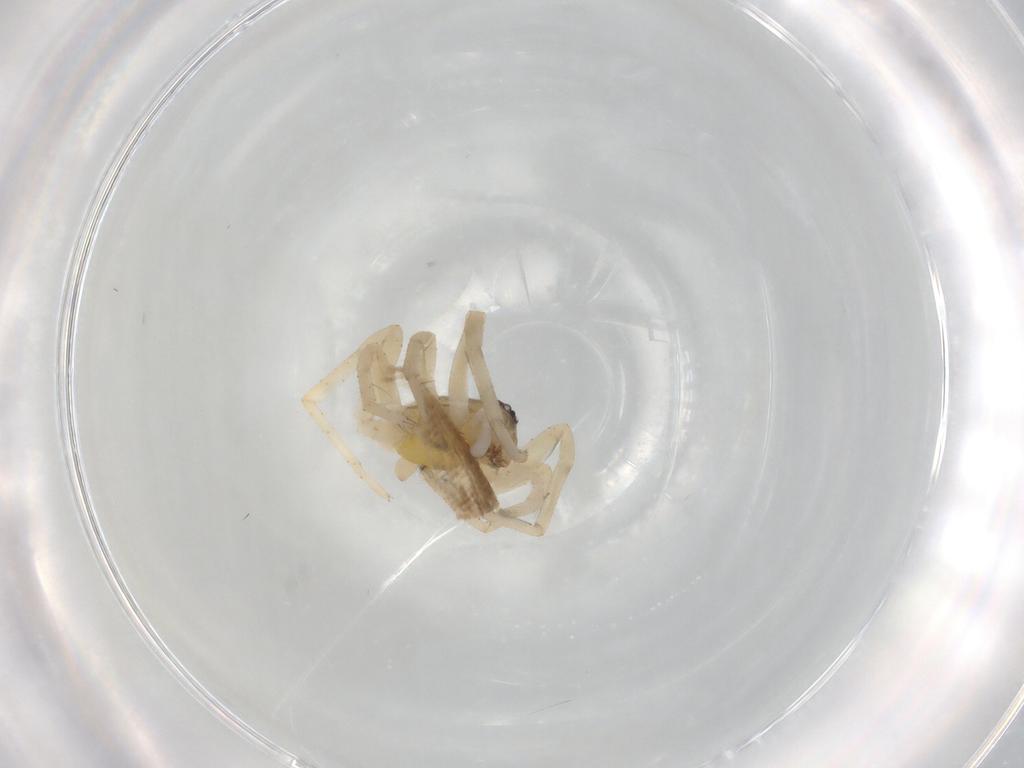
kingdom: Animalia
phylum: Arthropoda
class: Arachnida
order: Araneae
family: Anyphaenidae
